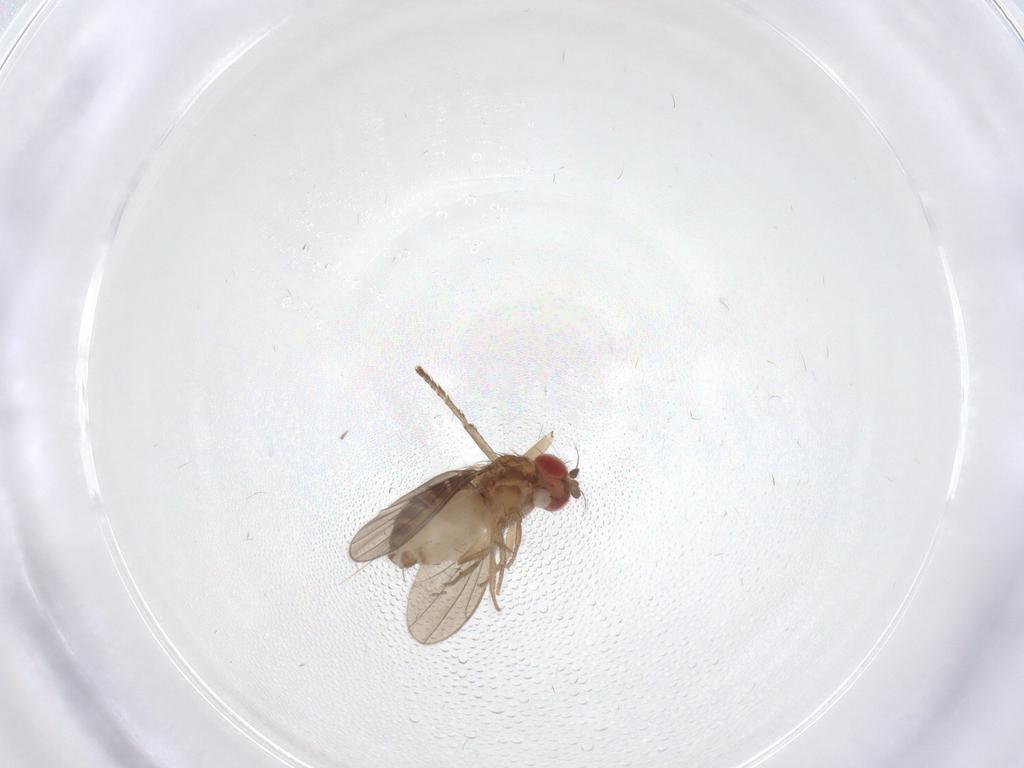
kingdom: Animalia
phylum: Arthropoda
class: Insecta
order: Diptera
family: Drosophilidae
